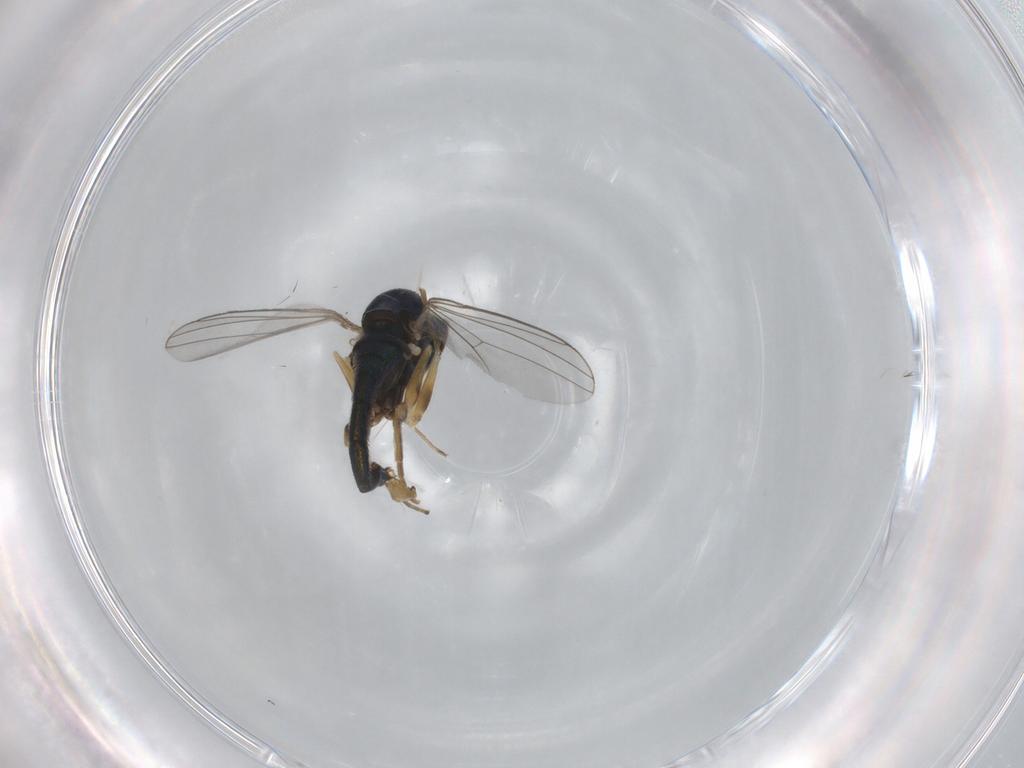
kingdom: Animalia
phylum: Arthropoda
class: Insecta
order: Diptera
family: Dolichopodidae
